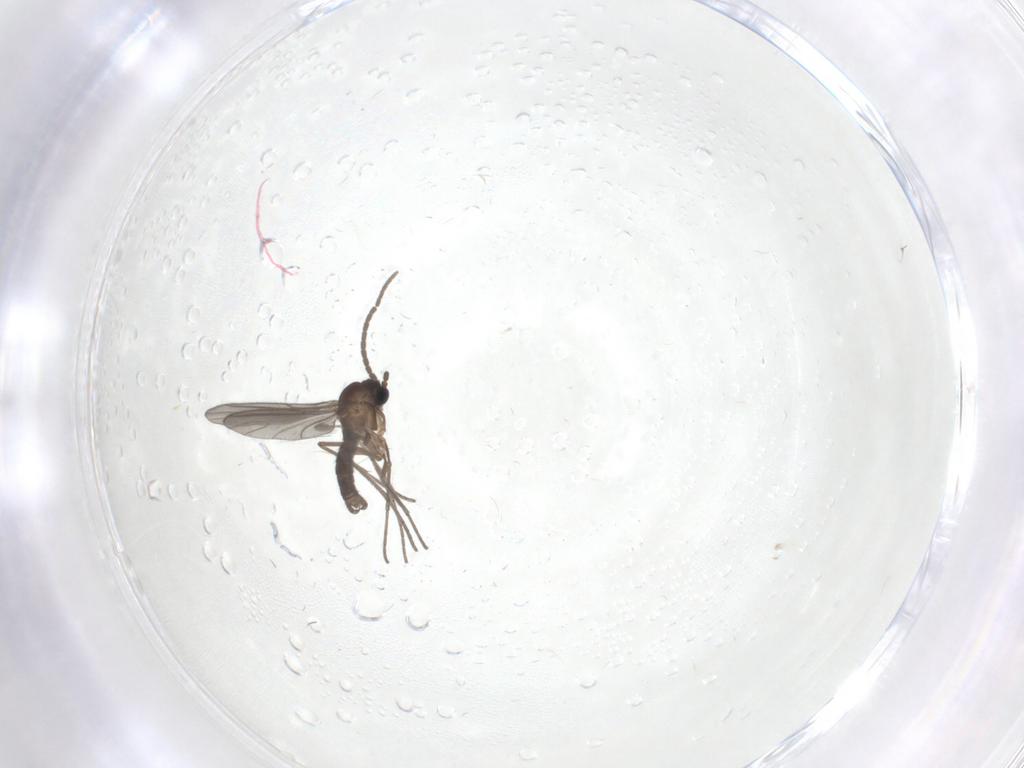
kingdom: Animalia
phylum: Arthropoda
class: Insecta
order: Diptera
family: Sciaridae
